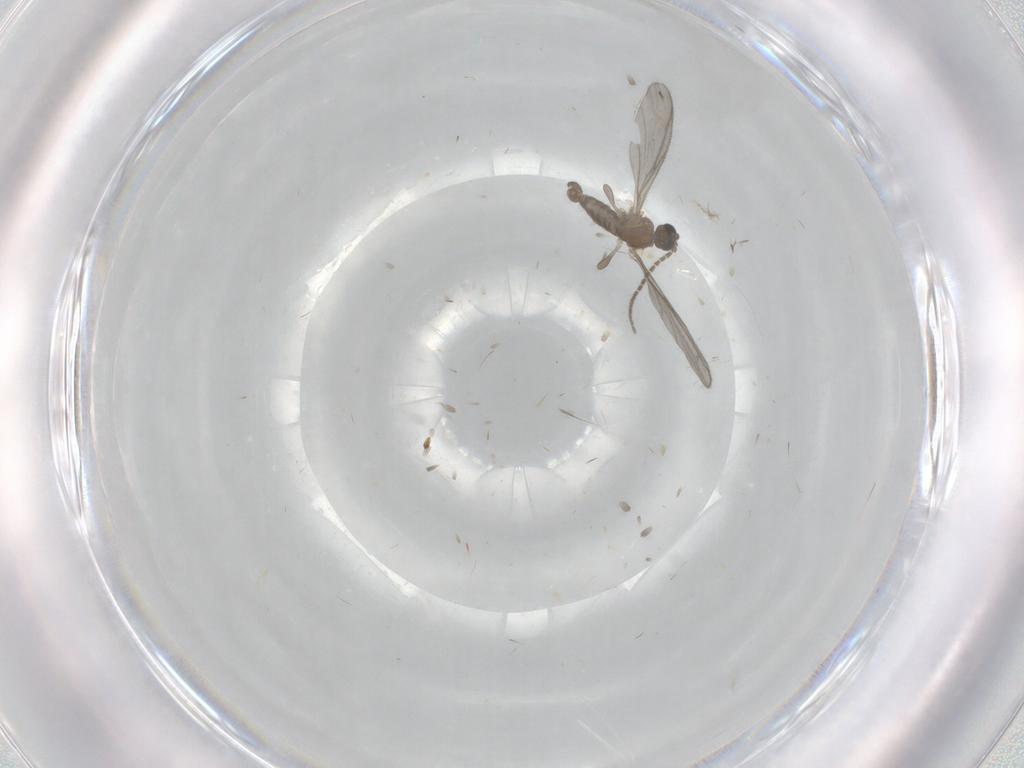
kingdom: Animalia
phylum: Arthropoda
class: Insecta
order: Diptera
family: Sciaridae
